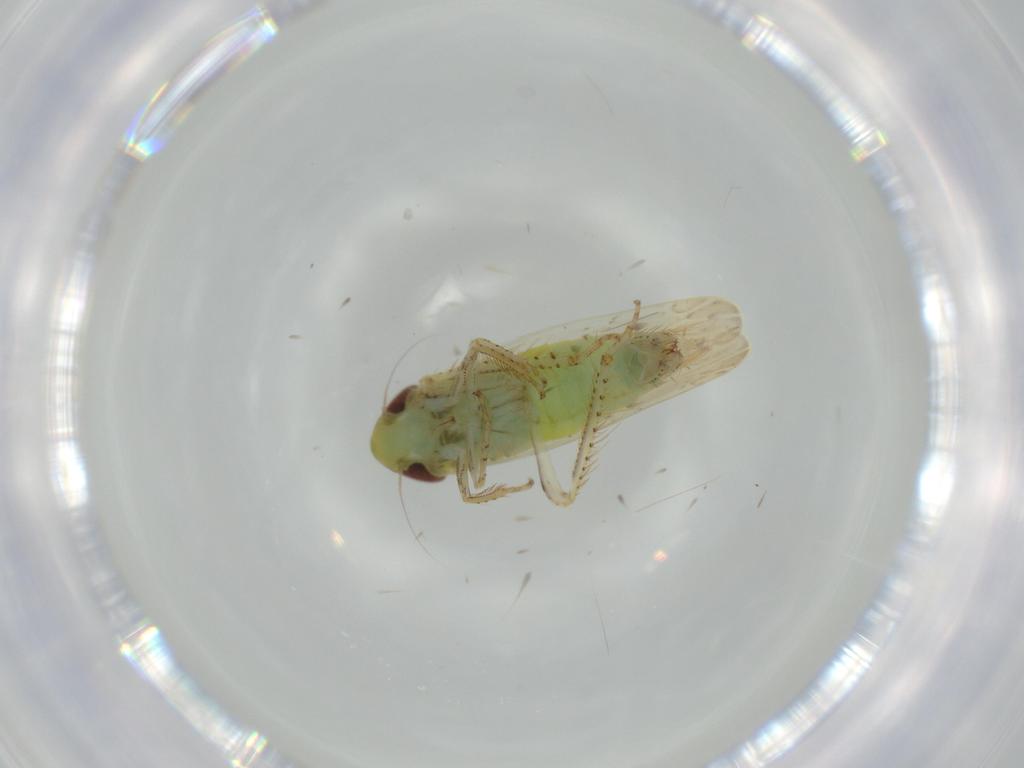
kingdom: Animalia
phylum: Arthropoda
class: Insecta
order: Hemiptera
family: Cicadellidae
